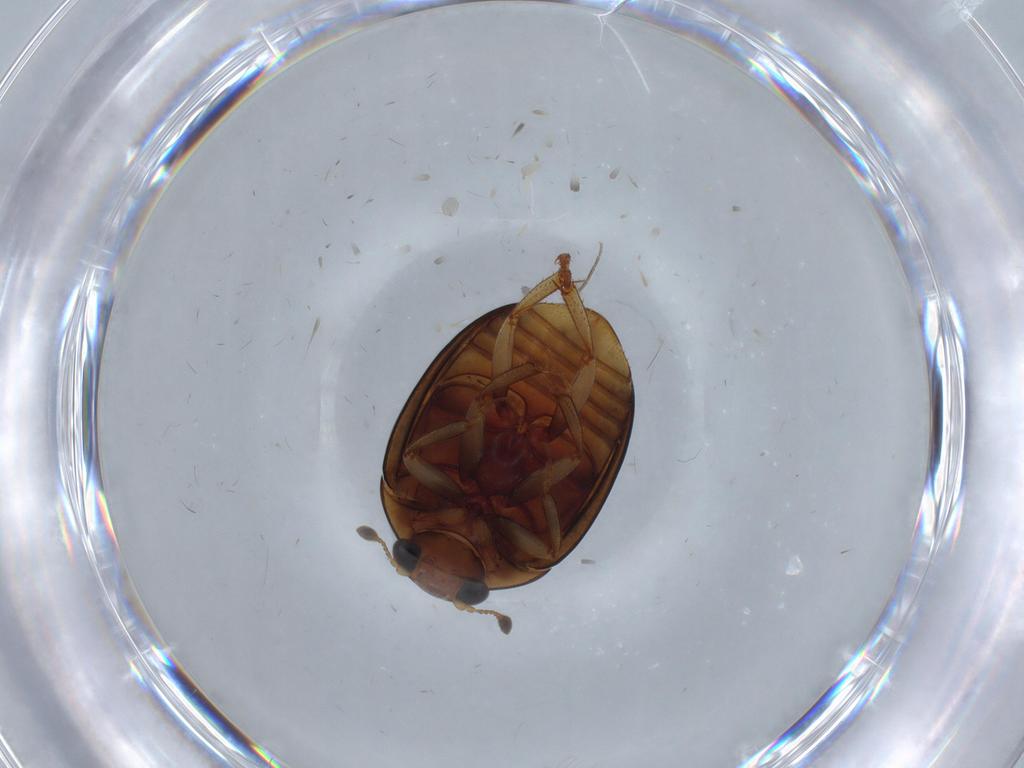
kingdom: Animalia
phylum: Arthropoda
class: Insecta
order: Coleoptera
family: Nitidulidae
